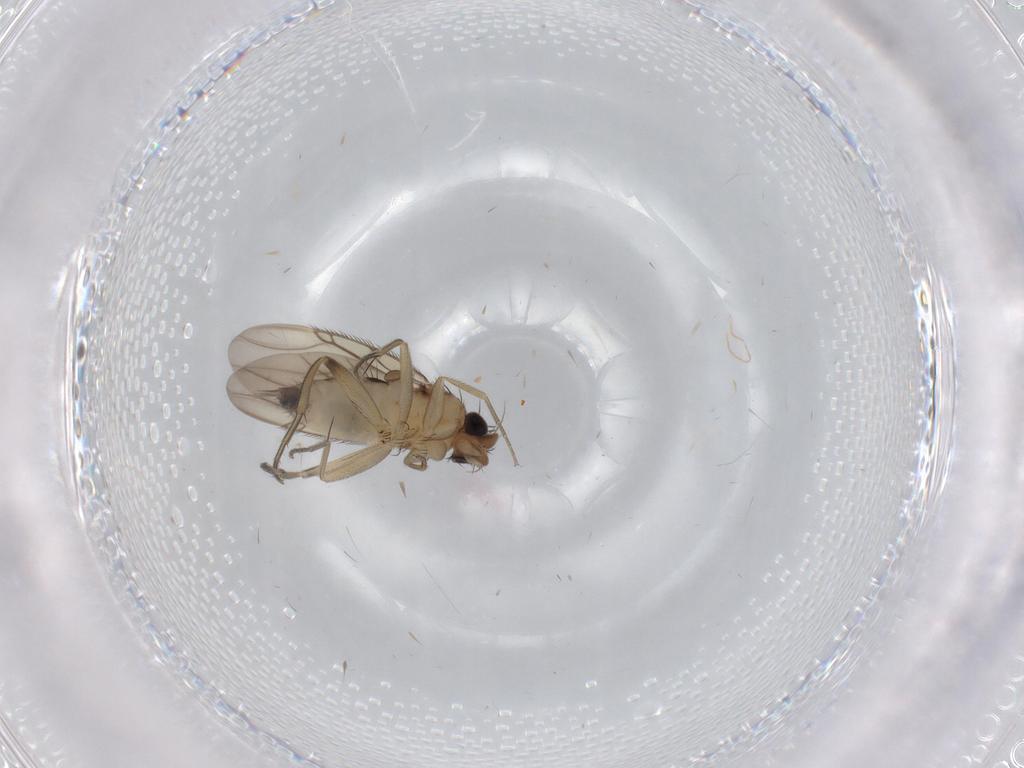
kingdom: Animalia
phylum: Arthropoda
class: Insecta
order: Diptera
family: Phoridae
